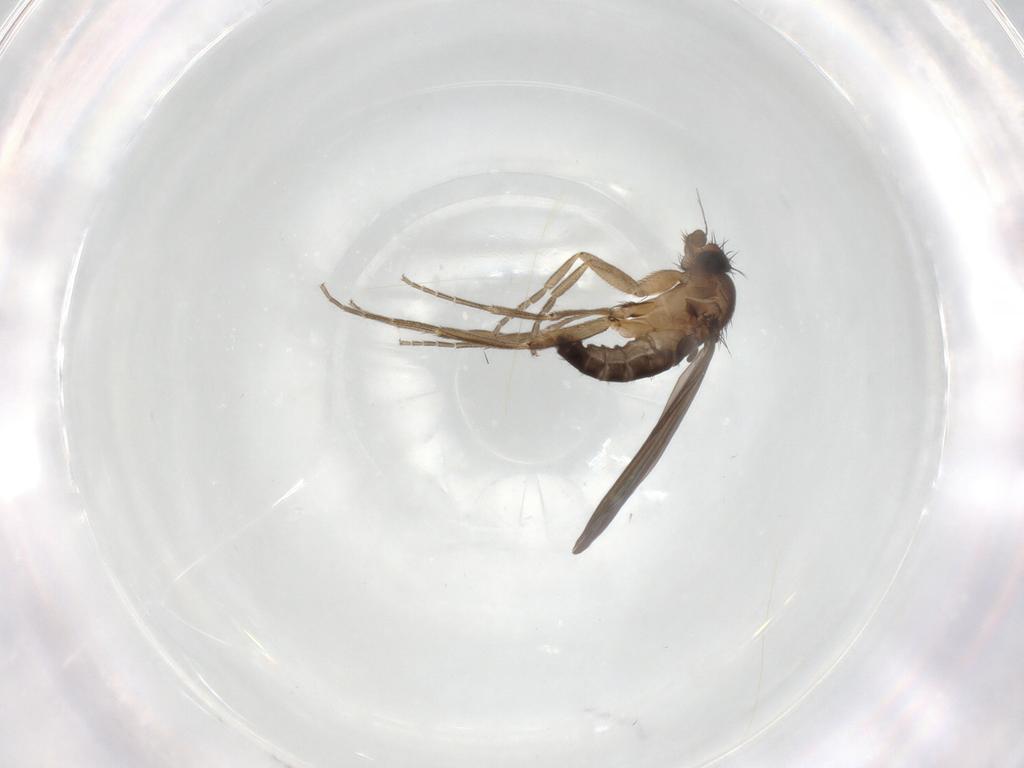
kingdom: Animalia
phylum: Arthropoda
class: Insecta
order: Diptera
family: Phoridae
